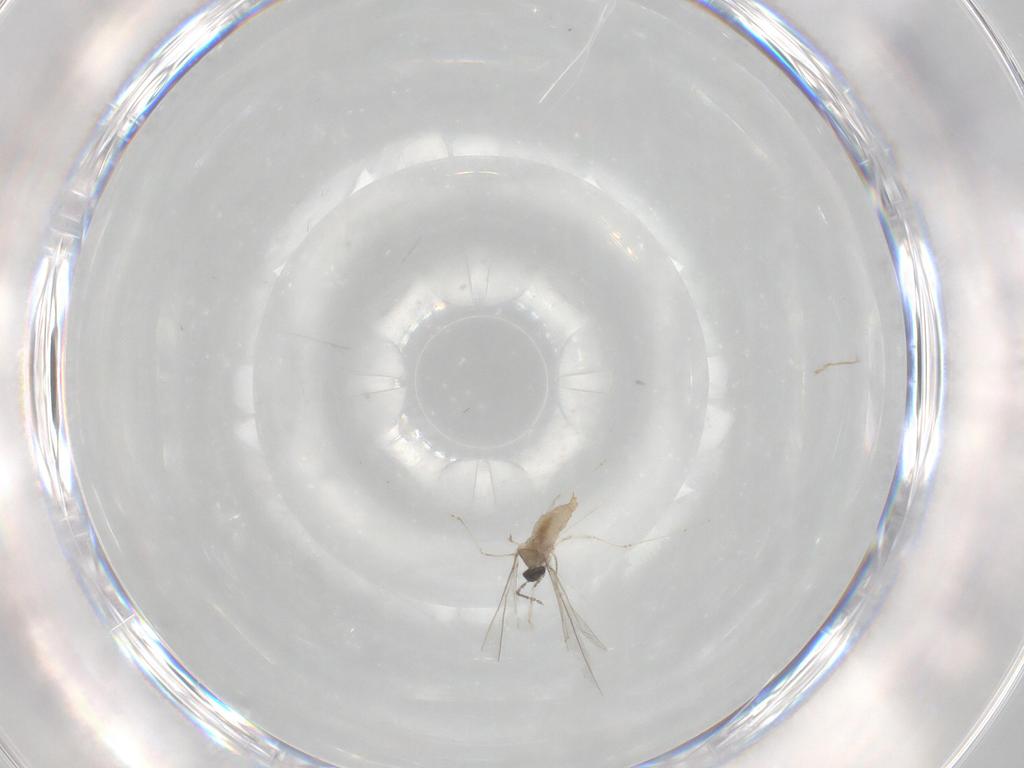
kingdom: Animalia
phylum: Arthropoda
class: Insecta
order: Diptera
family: Cecidomyiidae
